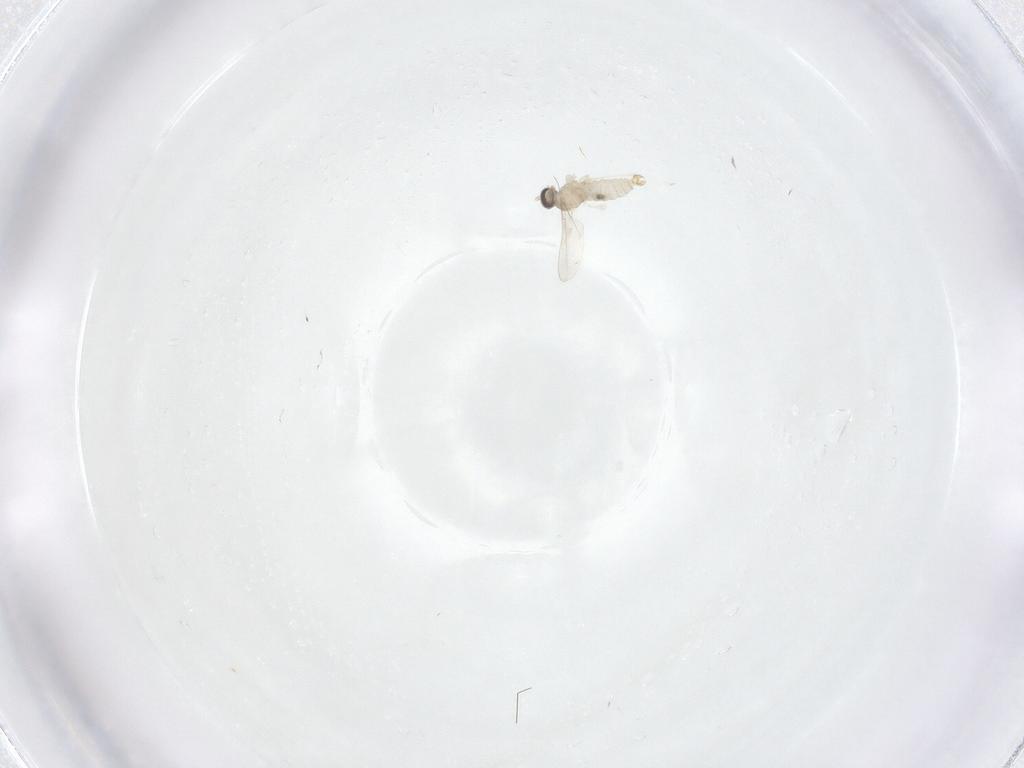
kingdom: Animalia
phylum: Arthropoda
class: Insecta
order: Diptera
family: Cecidomyiidae
